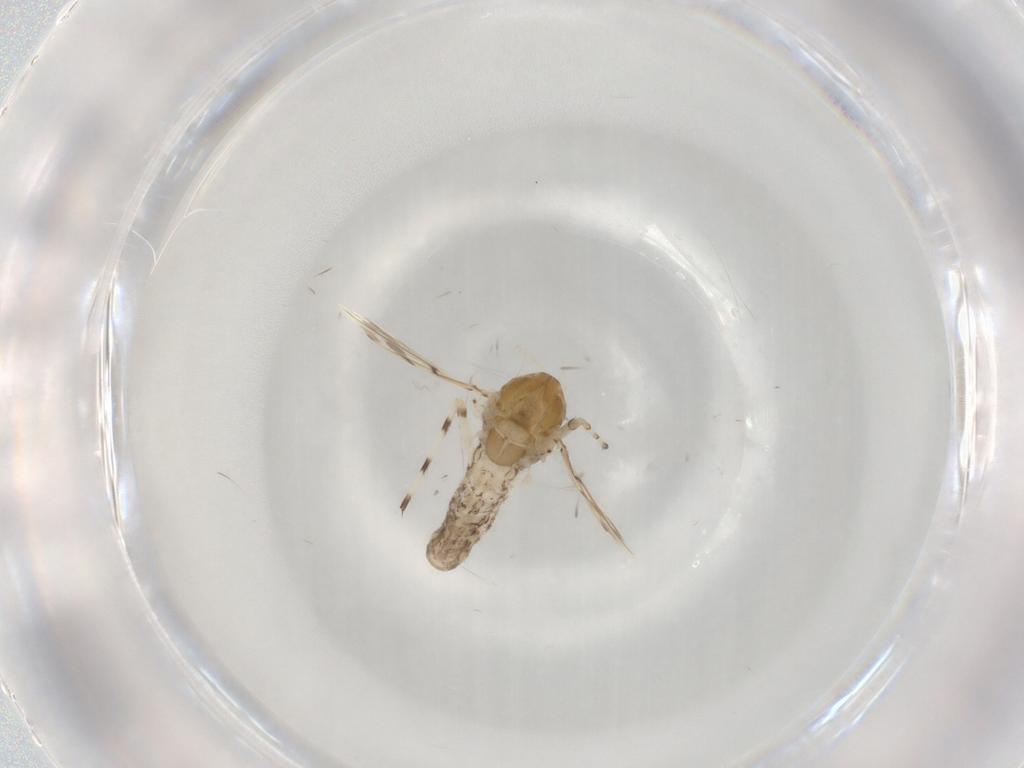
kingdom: Animalia
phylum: Arthropoda
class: Insecta
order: Diptera
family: Chironomidae
